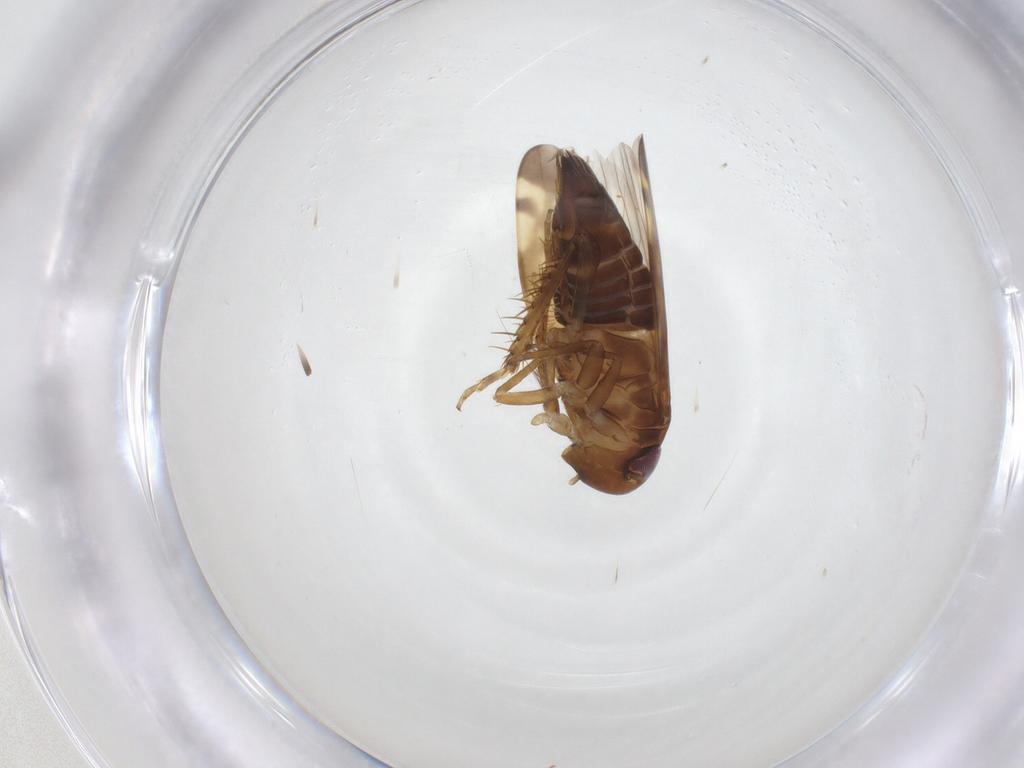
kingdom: Animalia
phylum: Arthropoda
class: Insecta
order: Hemiptera
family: Cicadellidae
